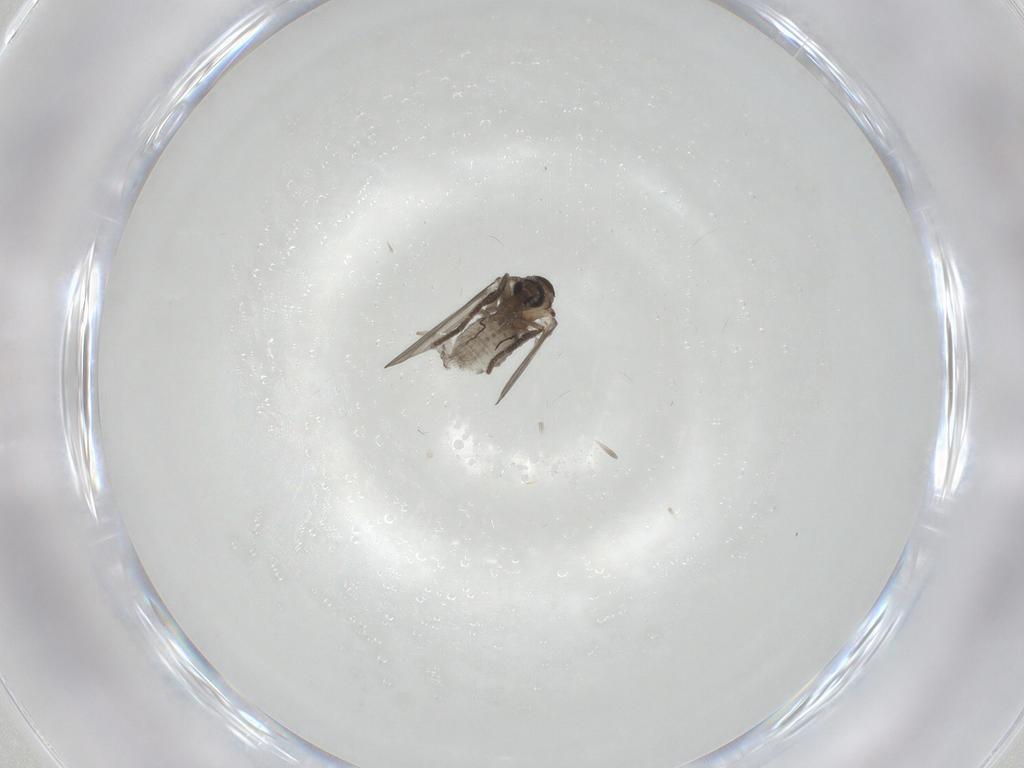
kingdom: Animalia
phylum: Arthropoda
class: Insecta
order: Diptera
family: Psychodidae
